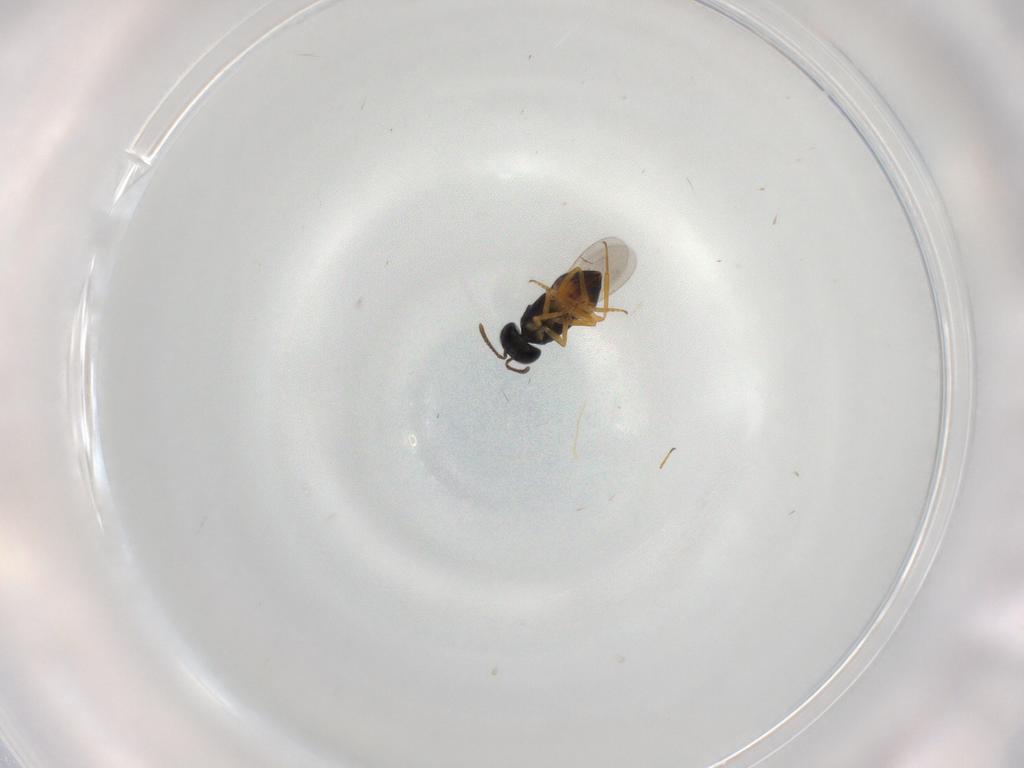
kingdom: Animalia
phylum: Arthropoda
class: Insecta
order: Hymenoptera
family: Encyrtidae
